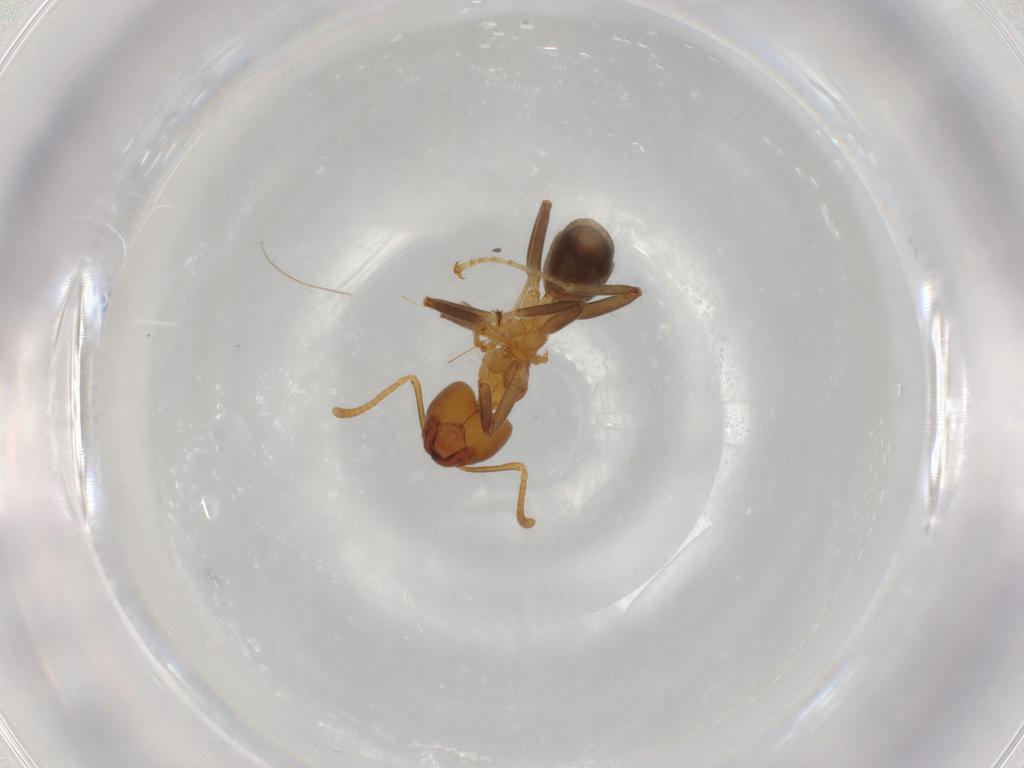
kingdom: Animalia
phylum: Arthropoda
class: Insecta
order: Hymenoptera
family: Formicidae
